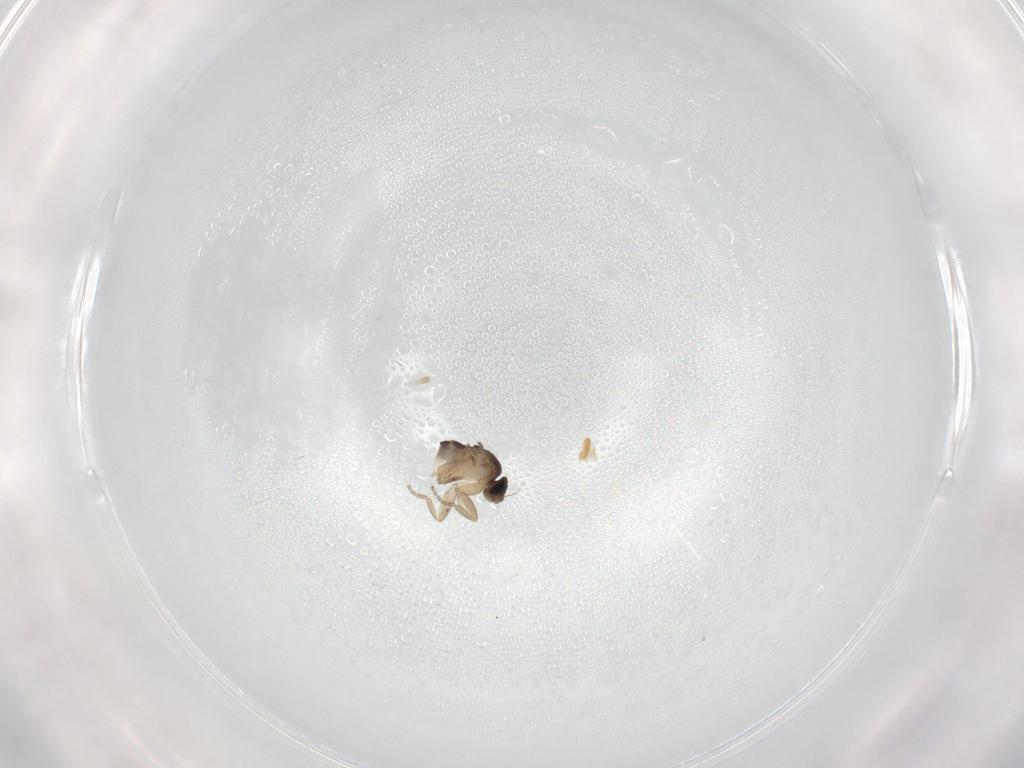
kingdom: Animalia
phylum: Arthropoda
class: Insecta
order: Diptera
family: Phoridae
